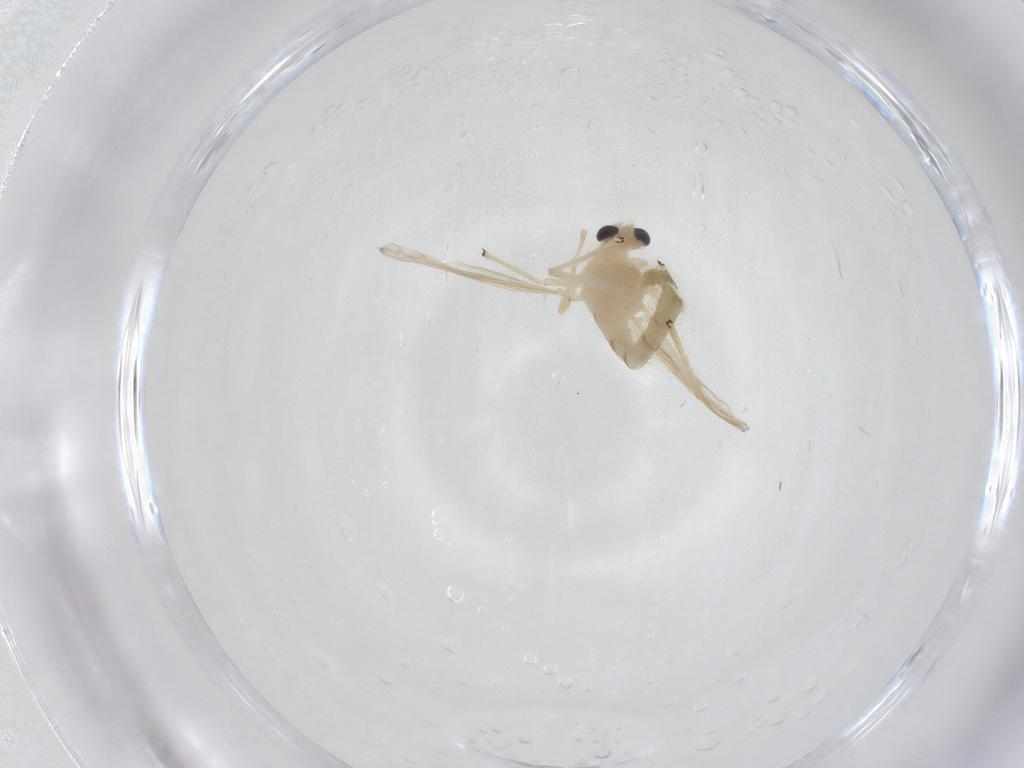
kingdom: Animalia
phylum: Arthropoda
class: Insecta
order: Diptera
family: Chironomidae
